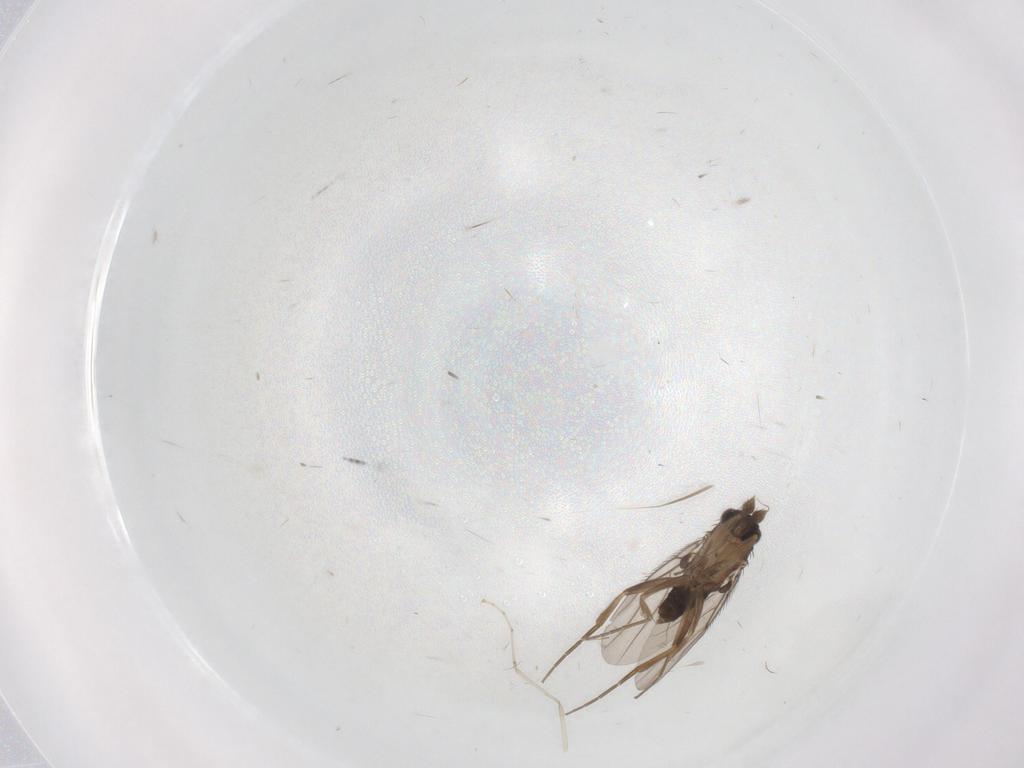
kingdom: Animalia
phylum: Arthropoda
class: Insecta
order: Diptera
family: Phoridae
